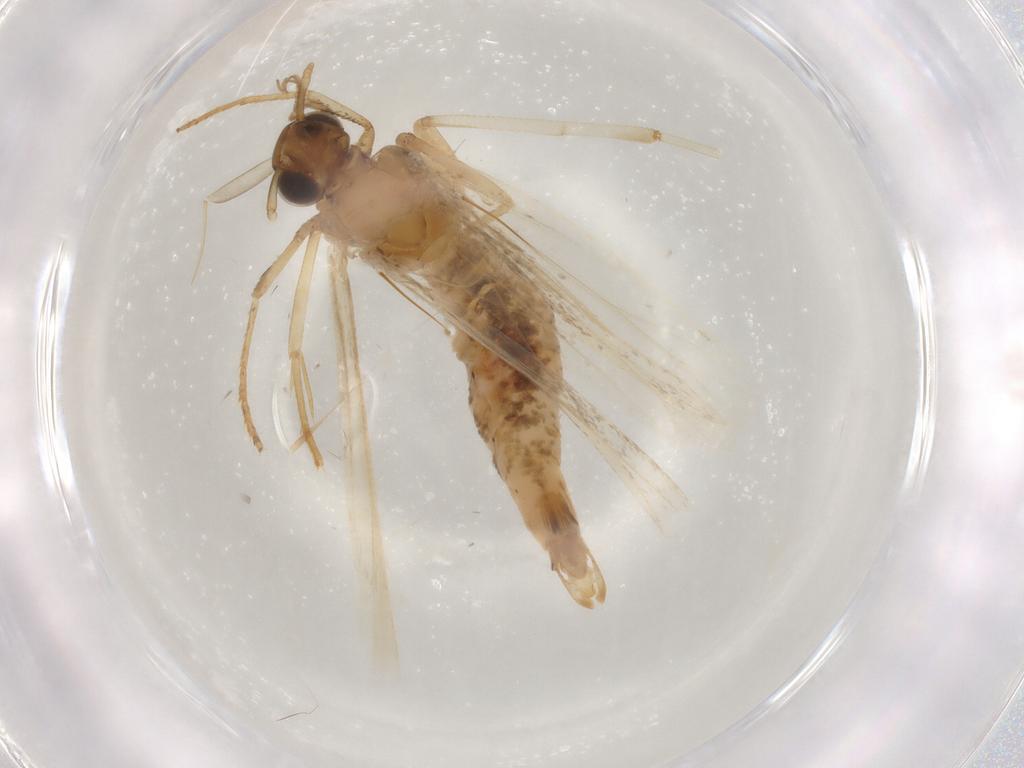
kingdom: Animalia
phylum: Arthropoda
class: Insecta
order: Lepidoptera
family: Gelechiidae
